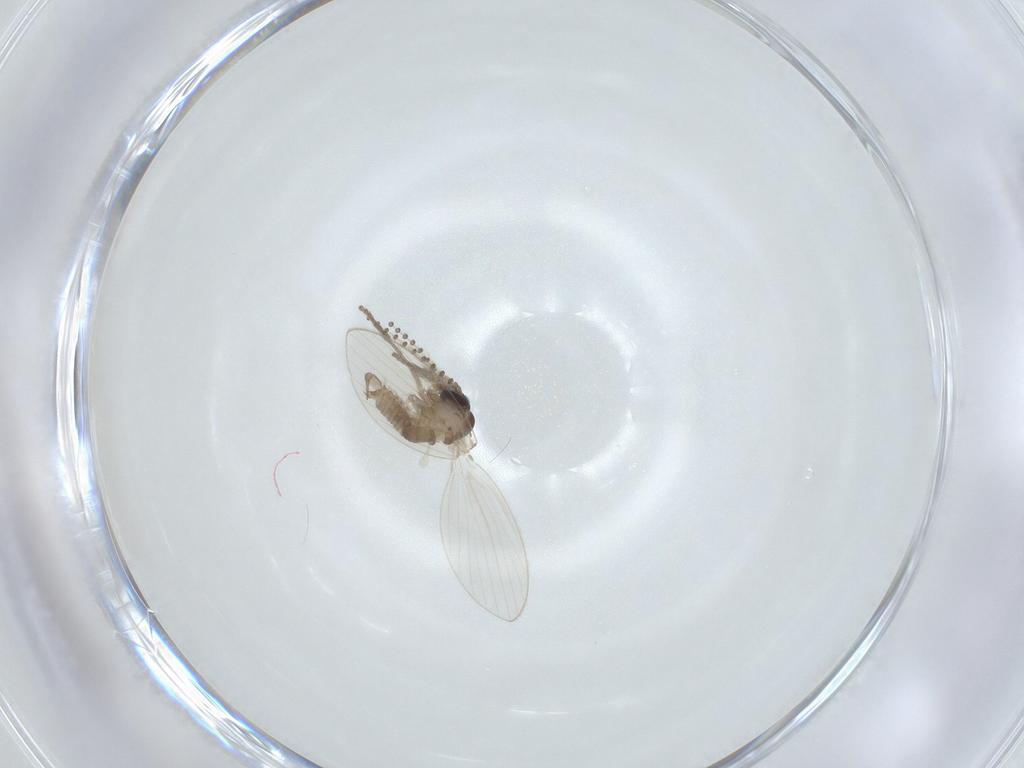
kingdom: Animalia
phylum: Arthropoda
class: Insecta
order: Diptera
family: Psychodidae
